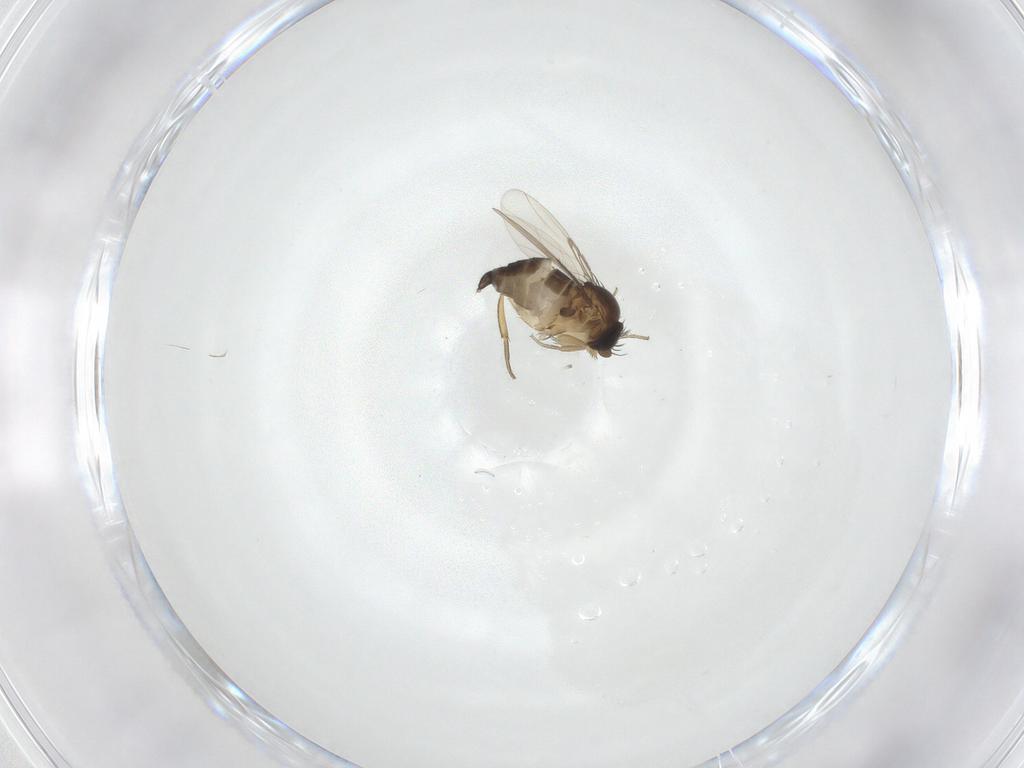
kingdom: Animalia
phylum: Arthropoda
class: Insecta
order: Diptera
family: Phoridae
